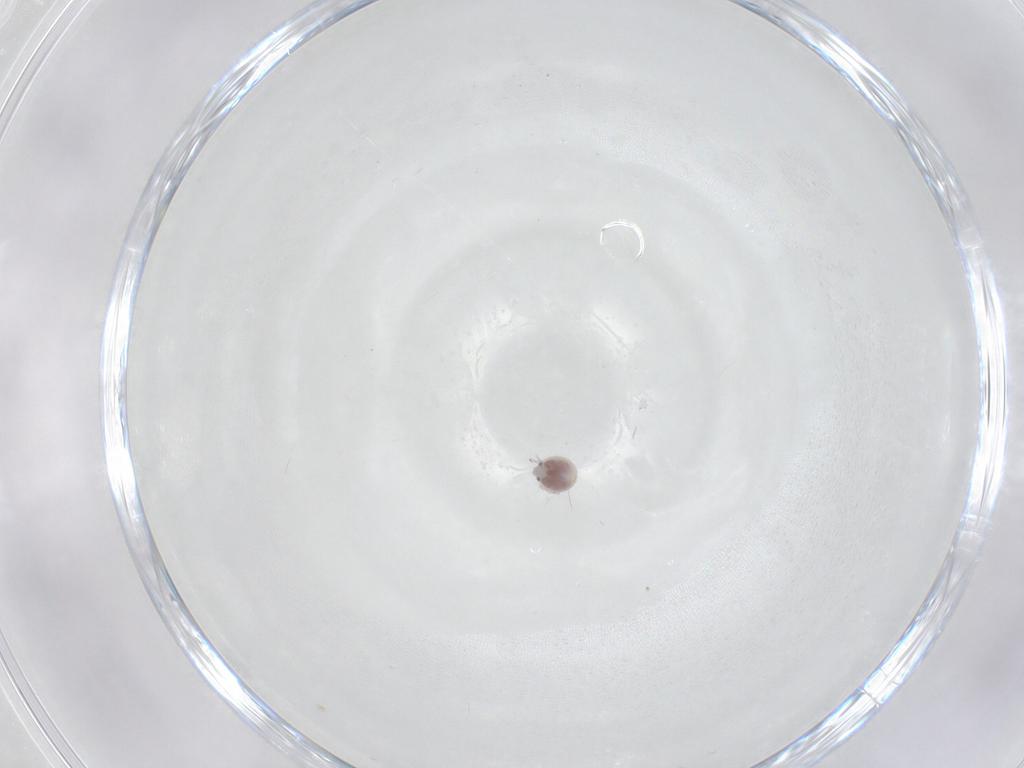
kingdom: Animalia
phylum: Arthropoda
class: Arachnida
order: Trombidiformes
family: Pionidae
